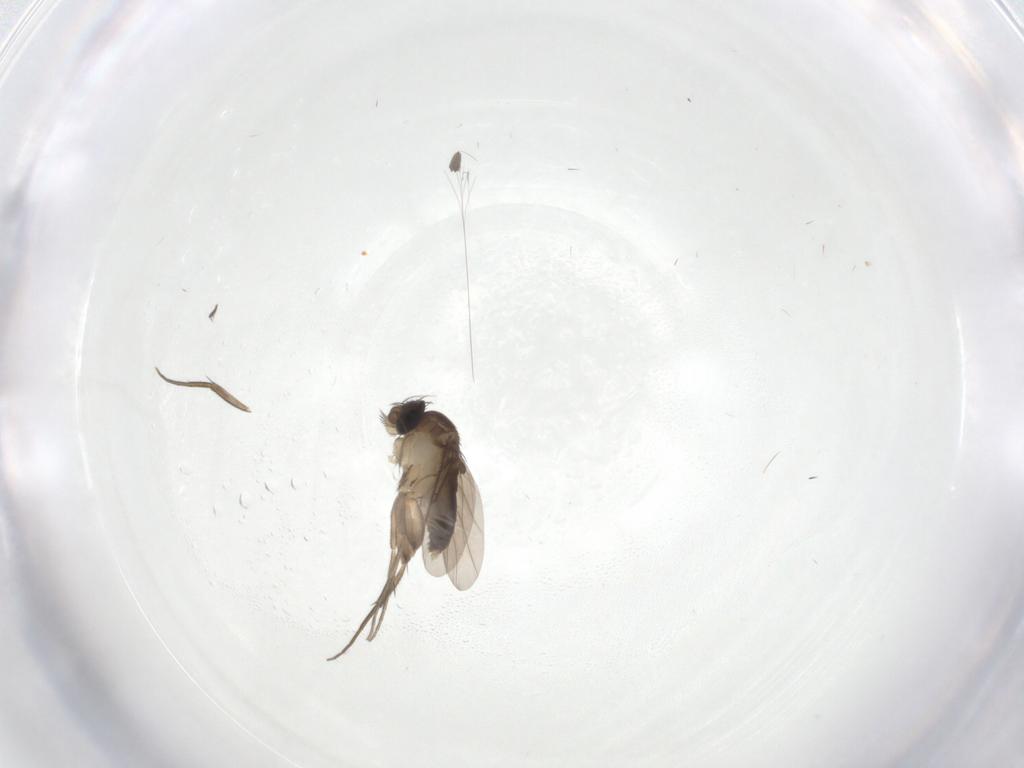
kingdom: Animalia
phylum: Arthropoda
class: Insecta
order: Diptera
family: Phoridae
